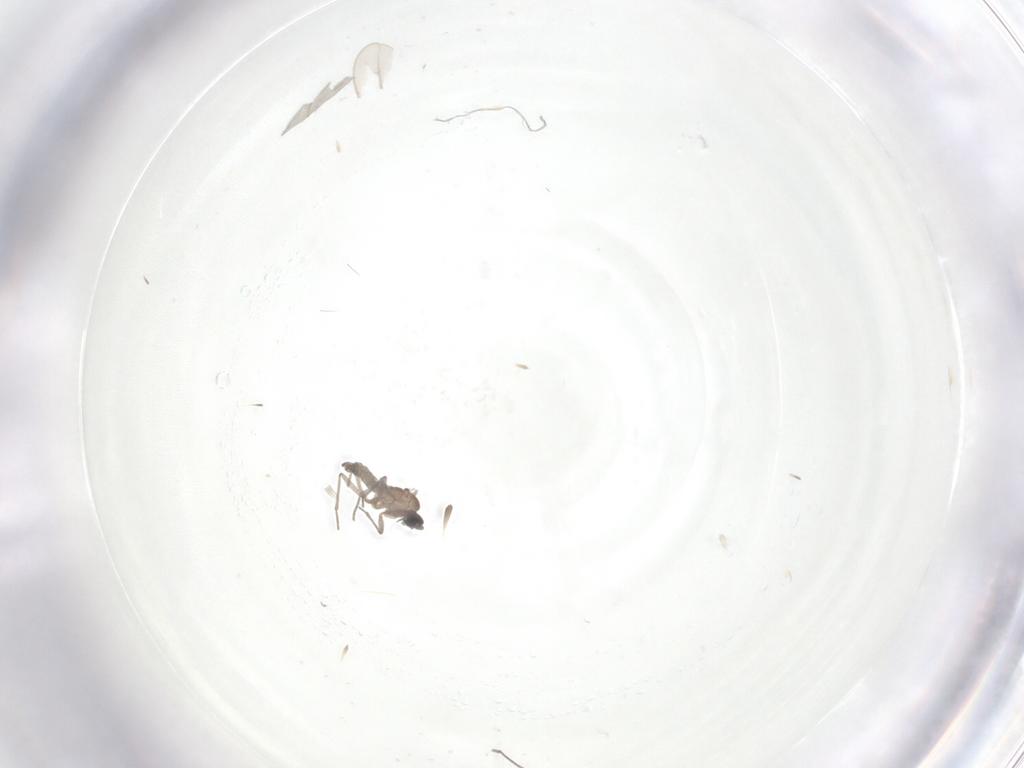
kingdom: Animalia
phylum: Arthropoda
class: Insecta
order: Diptera
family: Sciaridae
